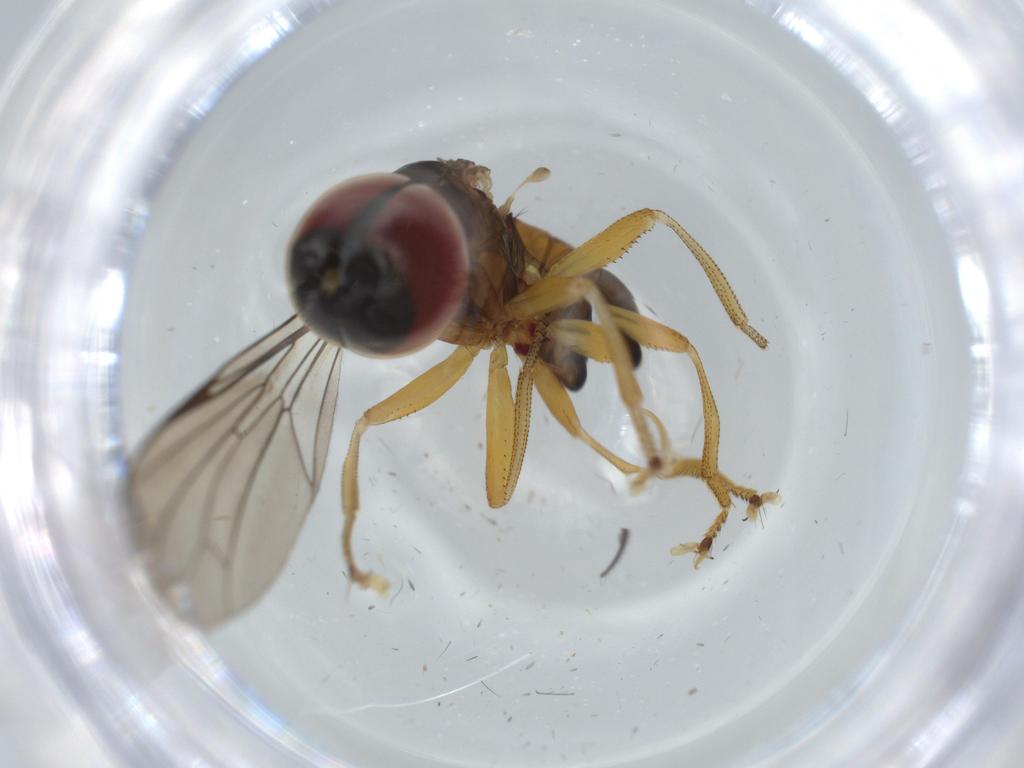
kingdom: Animalia
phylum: Arthropoda
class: Insecta
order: Diptera
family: Pipunculidae
